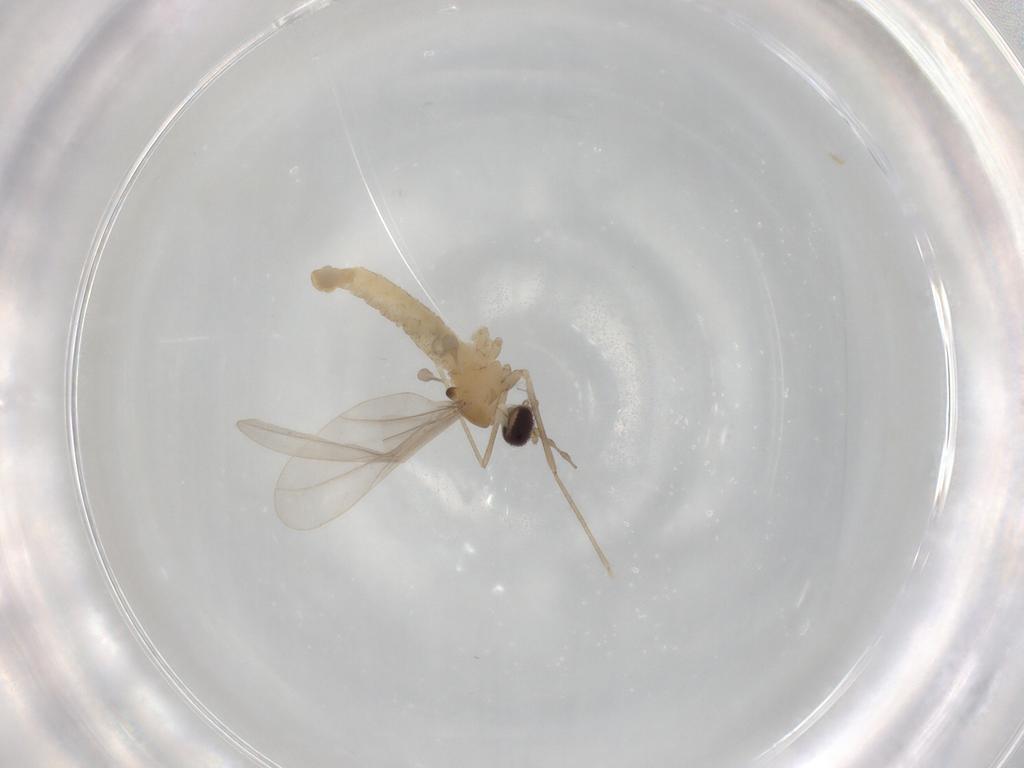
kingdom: Animalia
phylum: Arthropoda
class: Insecta
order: Diptera
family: Cecidomyiidae
